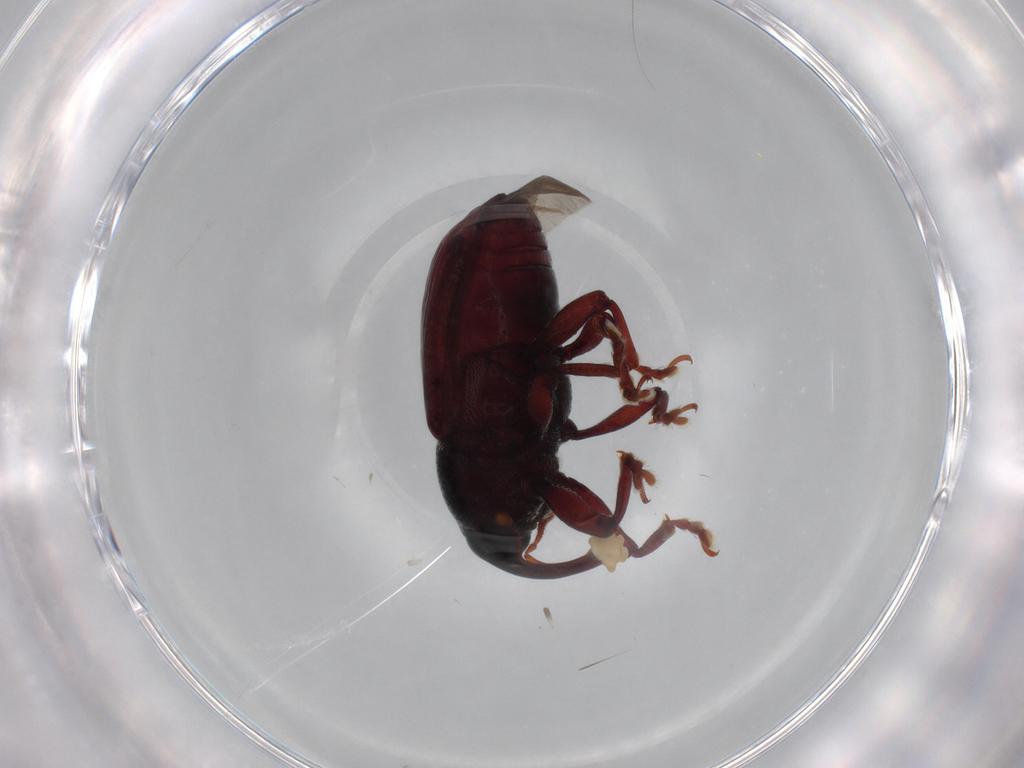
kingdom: Animalia
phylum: Arthropoda
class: Insecta
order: Coleoptera
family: Curculionidae
